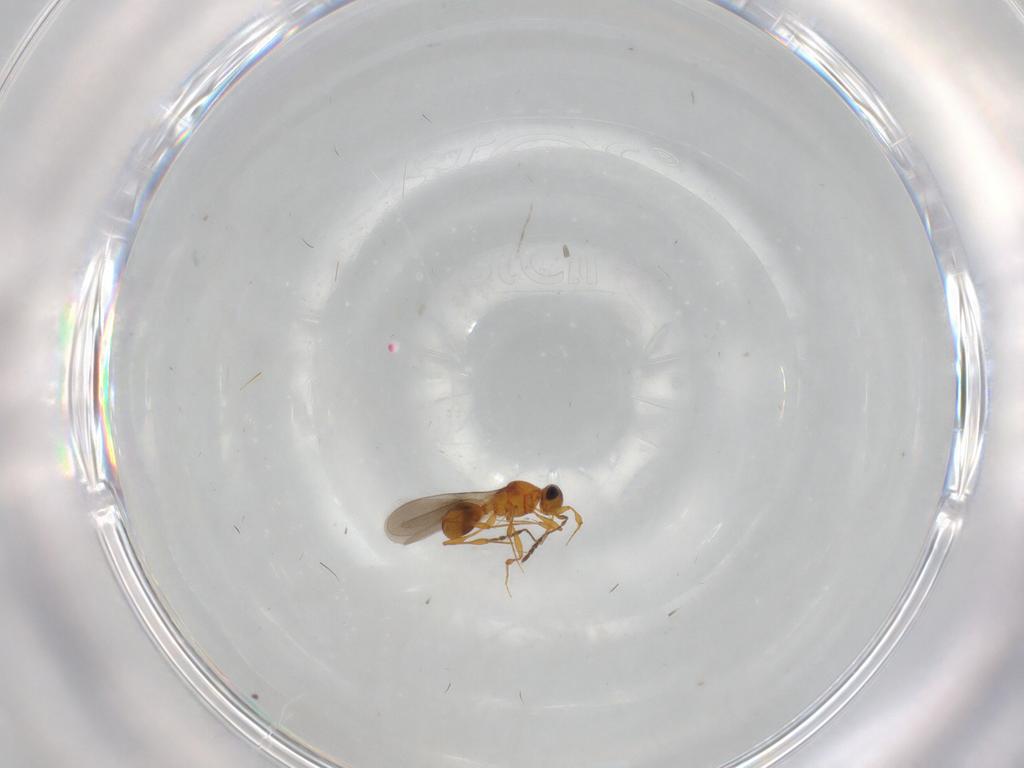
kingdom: Animalia
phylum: Arthropoda
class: Insecta
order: Hymenoptera
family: Platygastridae
